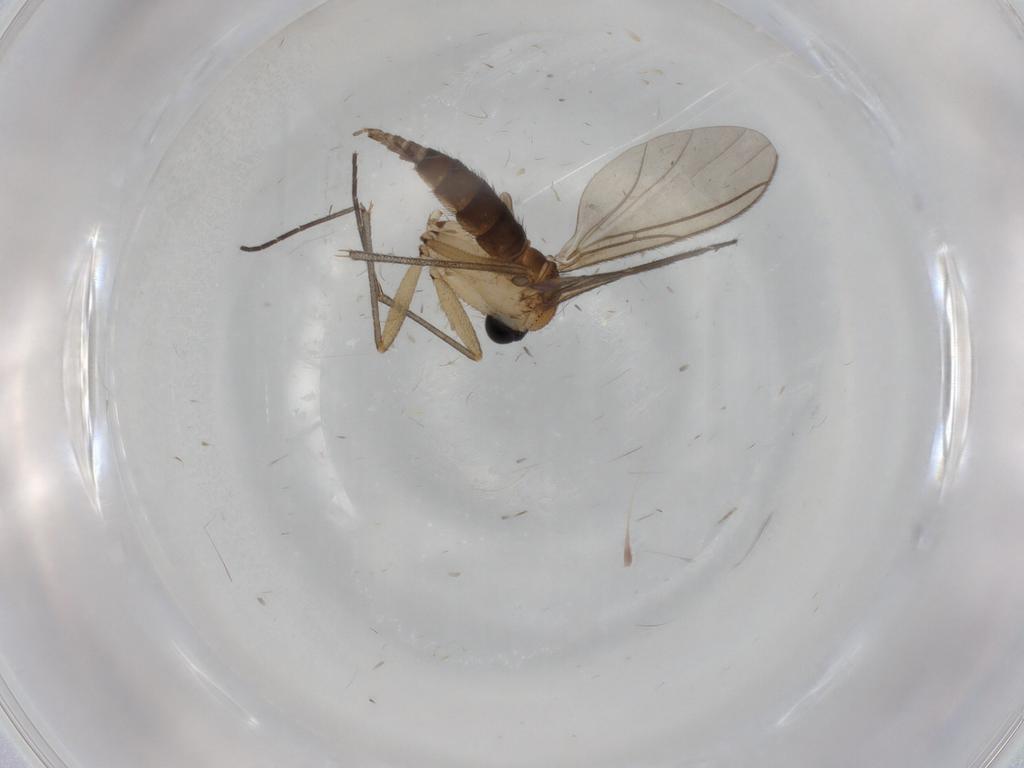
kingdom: Animalia
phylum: Arthropoda
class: Insecta
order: Diptera
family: Sciaridae
